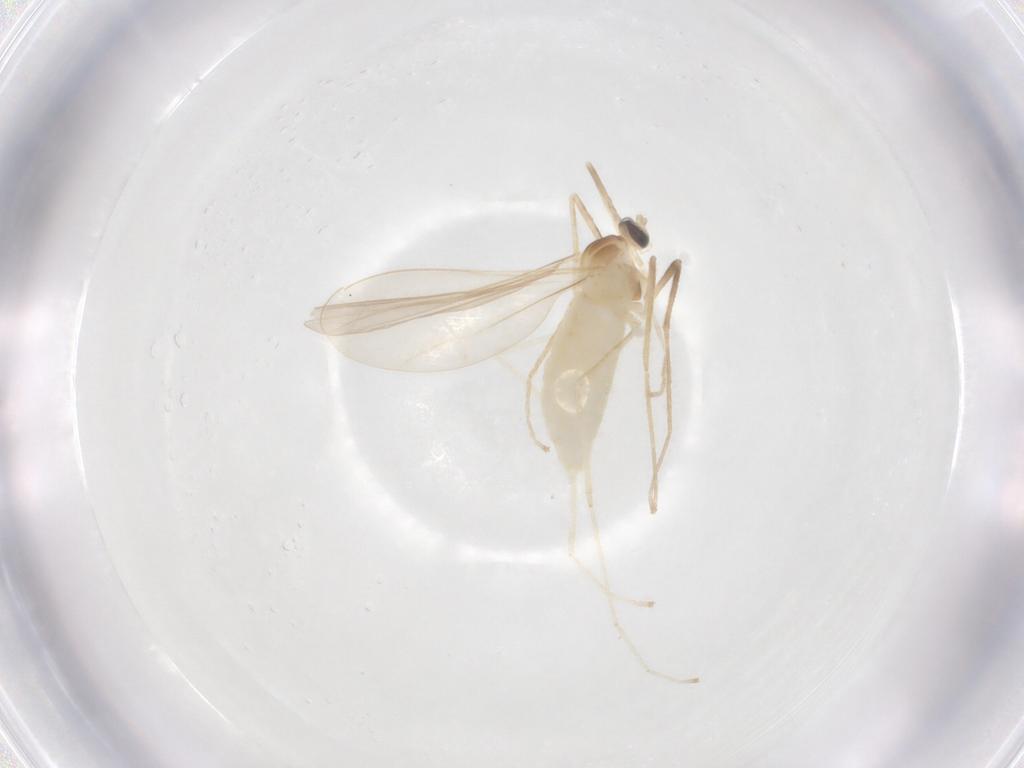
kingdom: Animalia
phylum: Arthropoda
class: Insecta
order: Diptera
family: Cecidomyiidae
